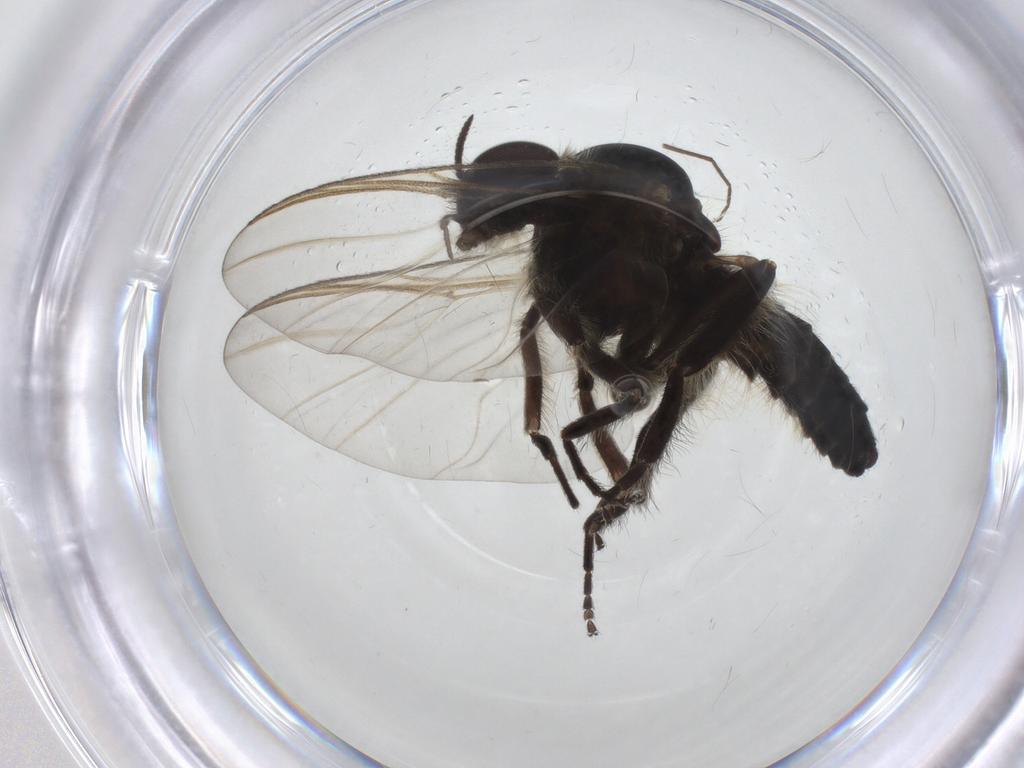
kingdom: Animalia
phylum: Arthropoda
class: Insecta
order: Diptera
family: Simuliidae
